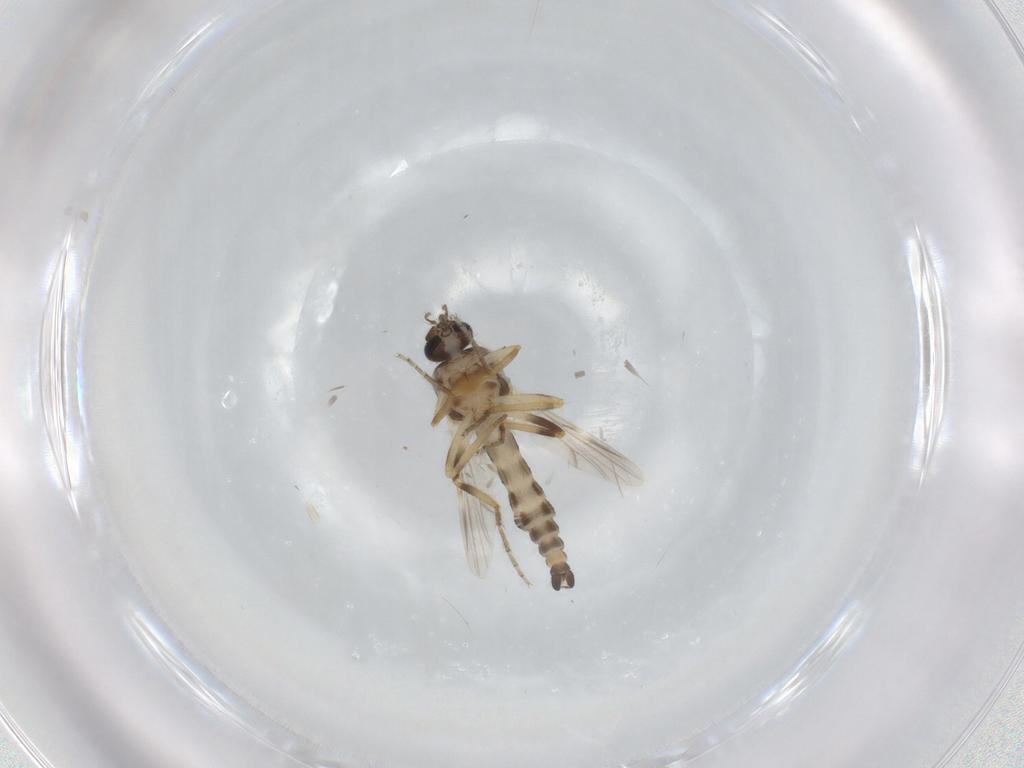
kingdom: Animalia
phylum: Arthropoda
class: Insecta
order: Diptera
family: Ceratopogonidae
